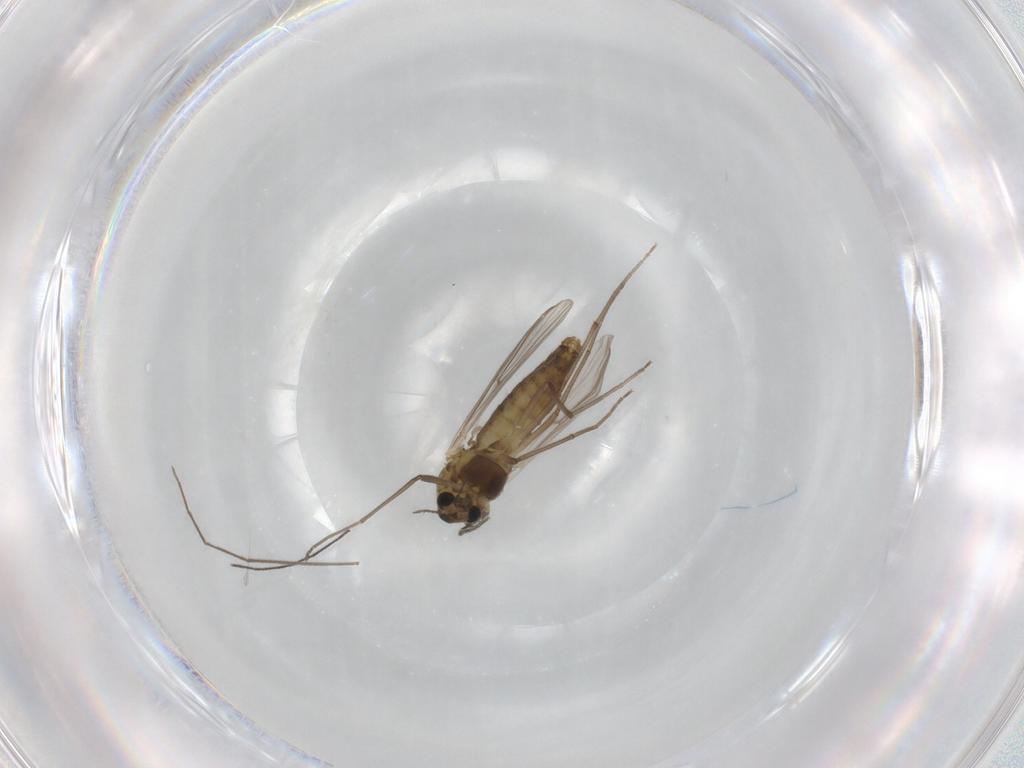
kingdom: Animalia
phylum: Arthropoda
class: Insecta
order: Diptera
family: Chironomidae
